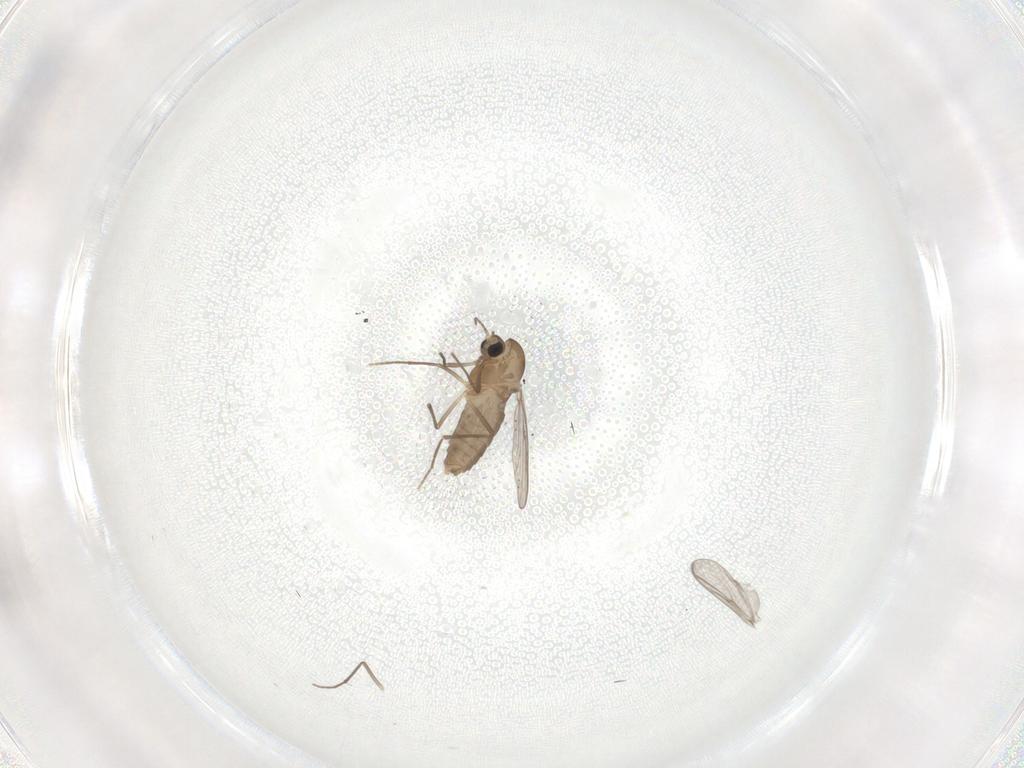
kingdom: Animalia
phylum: Arthropoda
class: Insecta
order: Diptera
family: Chironomidae
